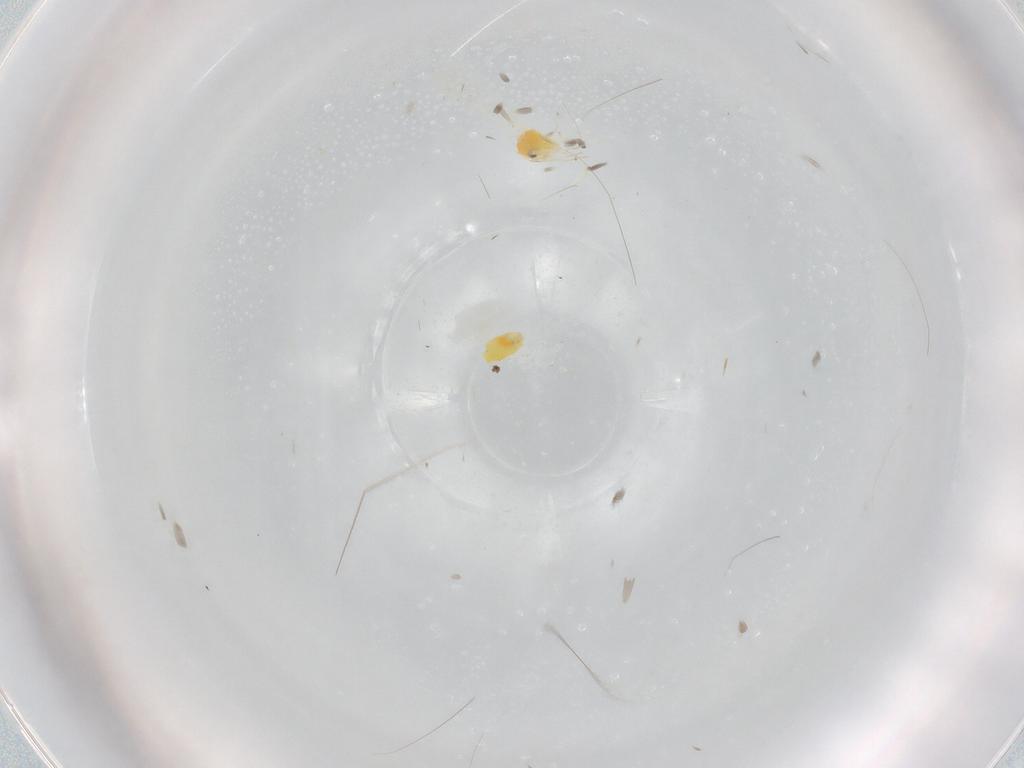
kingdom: Animalia
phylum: Arthropoda
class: Insecta
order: Hemiptera
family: Aleyrodidae
